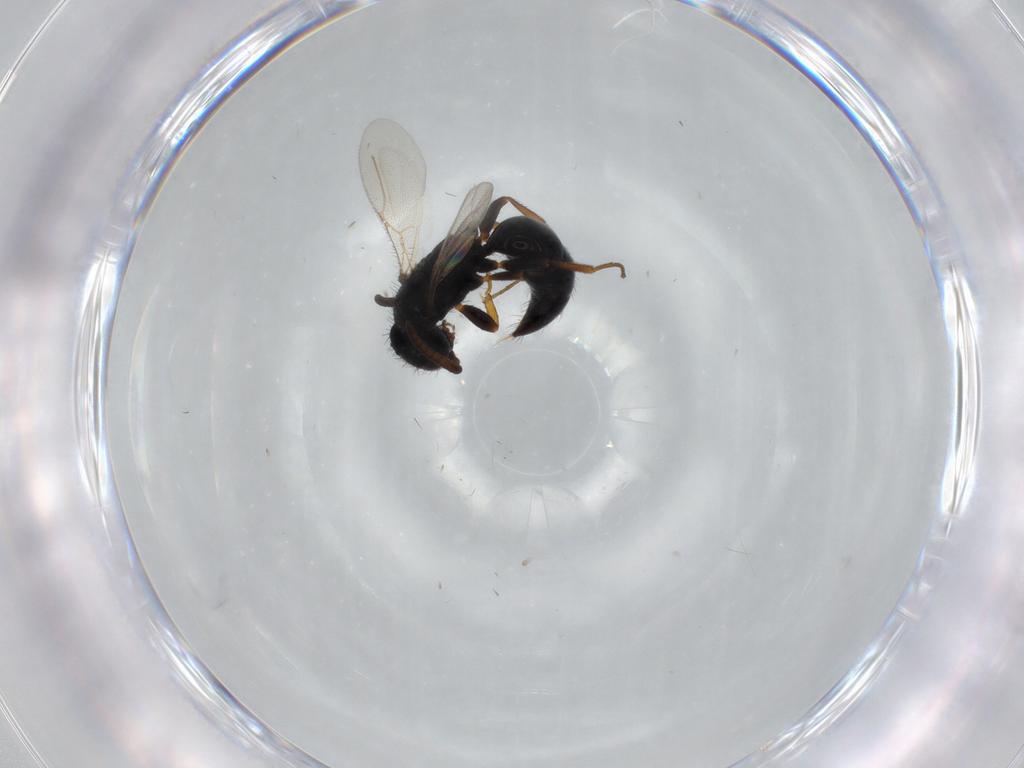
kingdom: Animalia
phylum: Arthropoda
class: Insecta
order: Hymenoptera
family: Bethylidae
